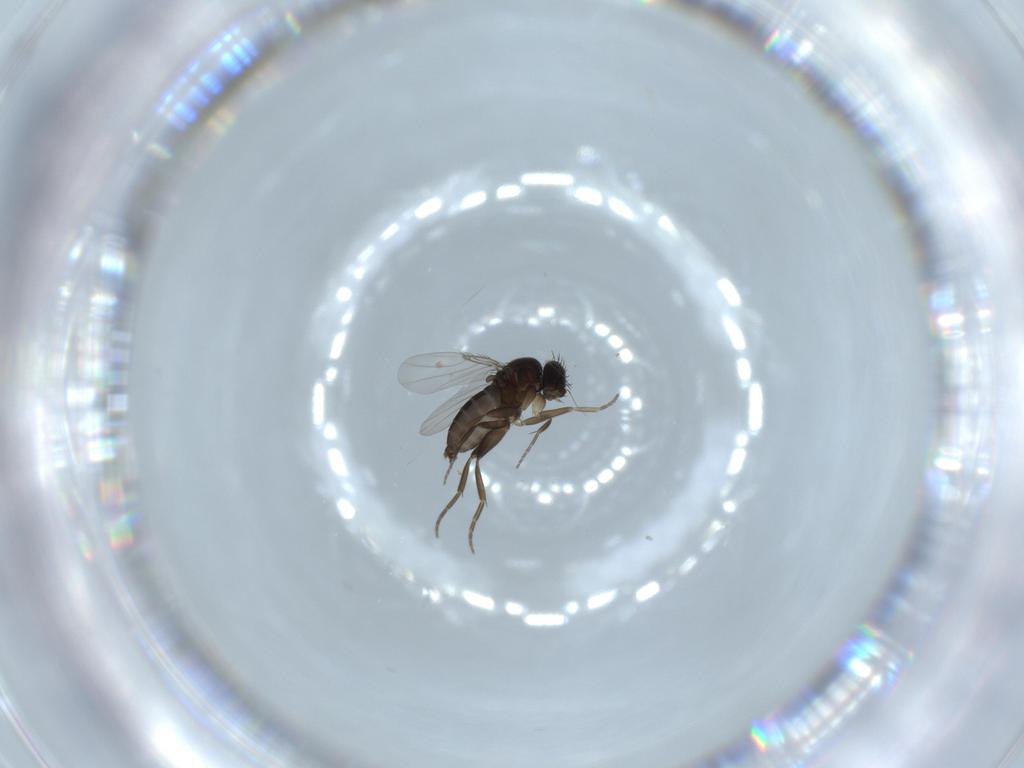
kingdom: Animalia
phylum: Arthropoda
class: Insecta
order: Diptera
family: Phoridae
